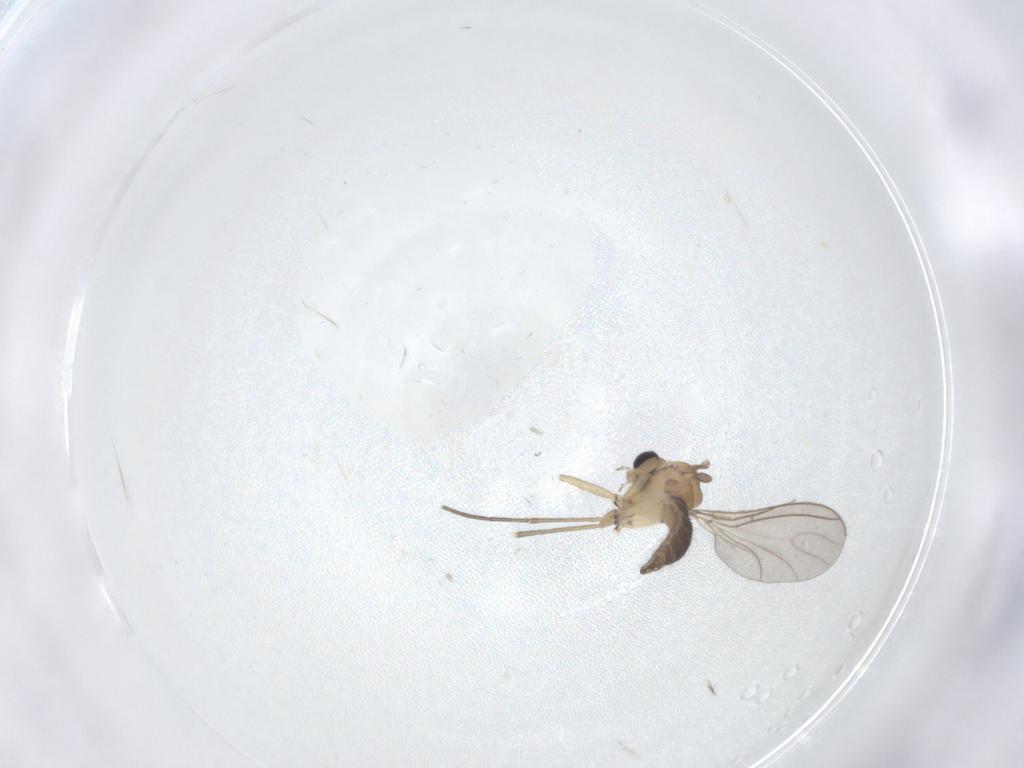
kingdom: Animalia
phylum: Arthropoda
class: Insecta
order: Diptera
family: Sciaridae
